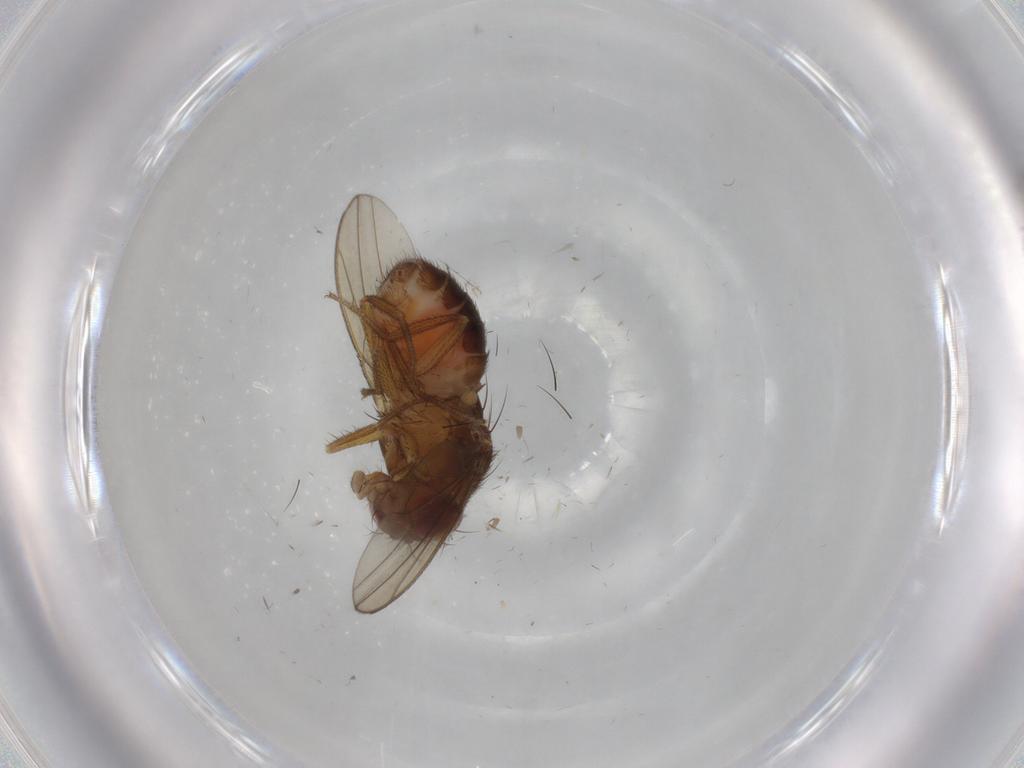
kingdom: Animalia
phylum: Arthropoda
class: Insecta
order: Diptera
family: Drosophilidae
